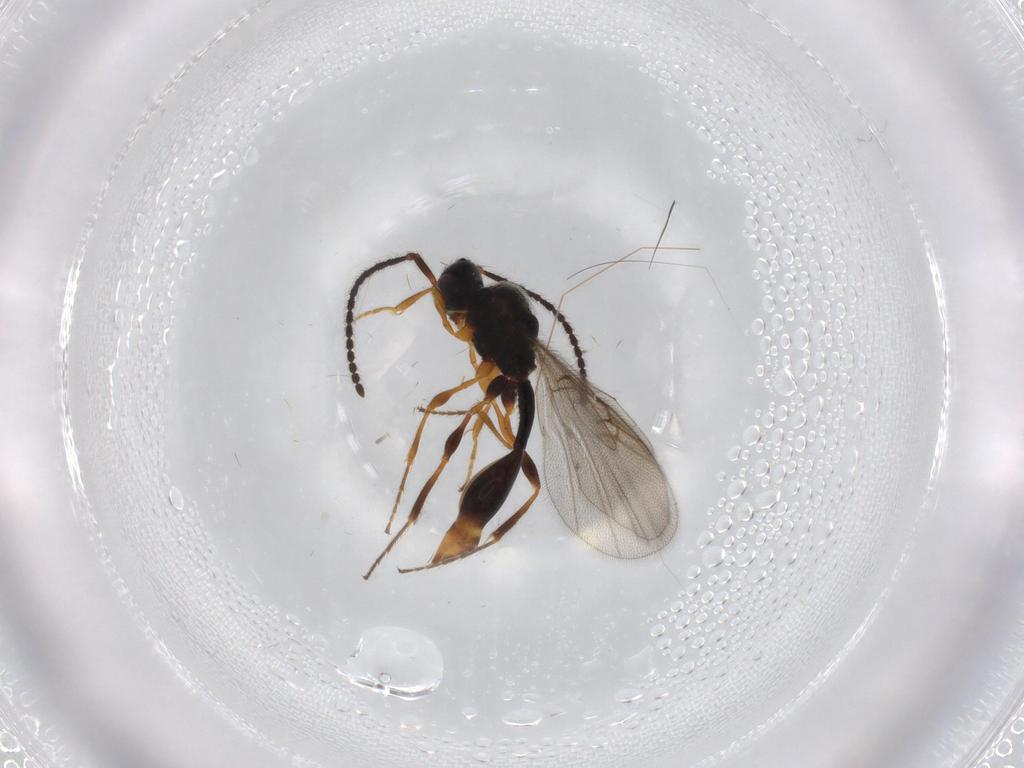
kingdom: Animalia
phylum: Arthropoda
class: Insecta
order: Hymenoptera
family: Diapriidae
